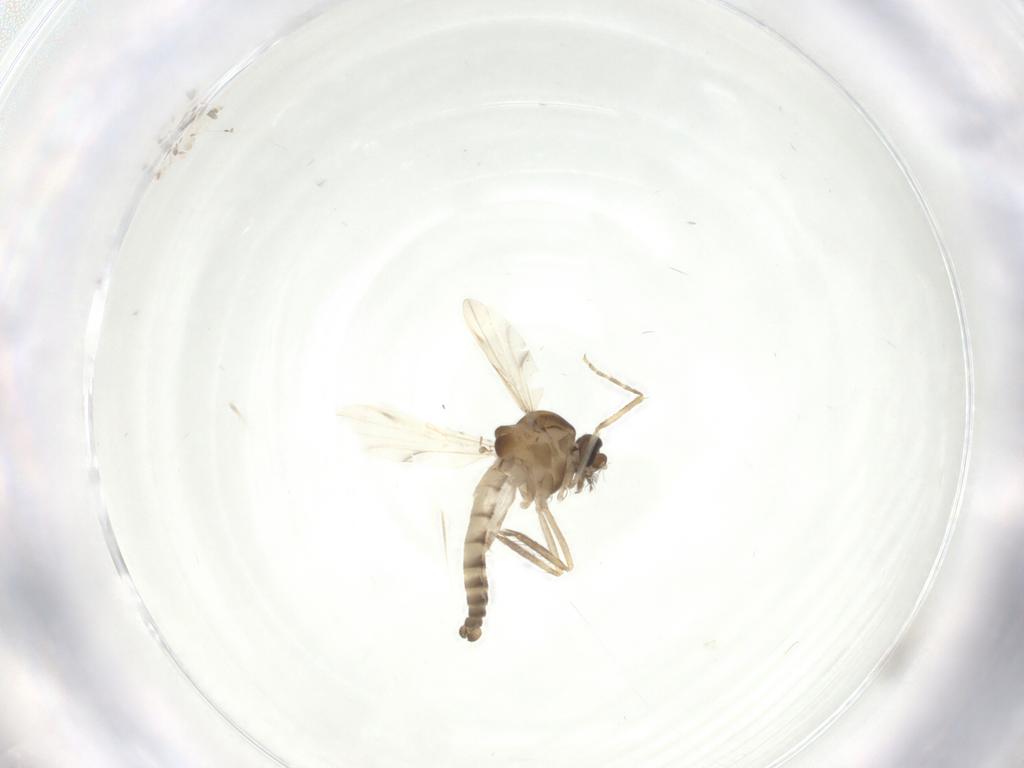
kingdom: Animalia
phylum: Arthropoda
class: Insecta
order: Diptera
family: Ceratopogonidae
